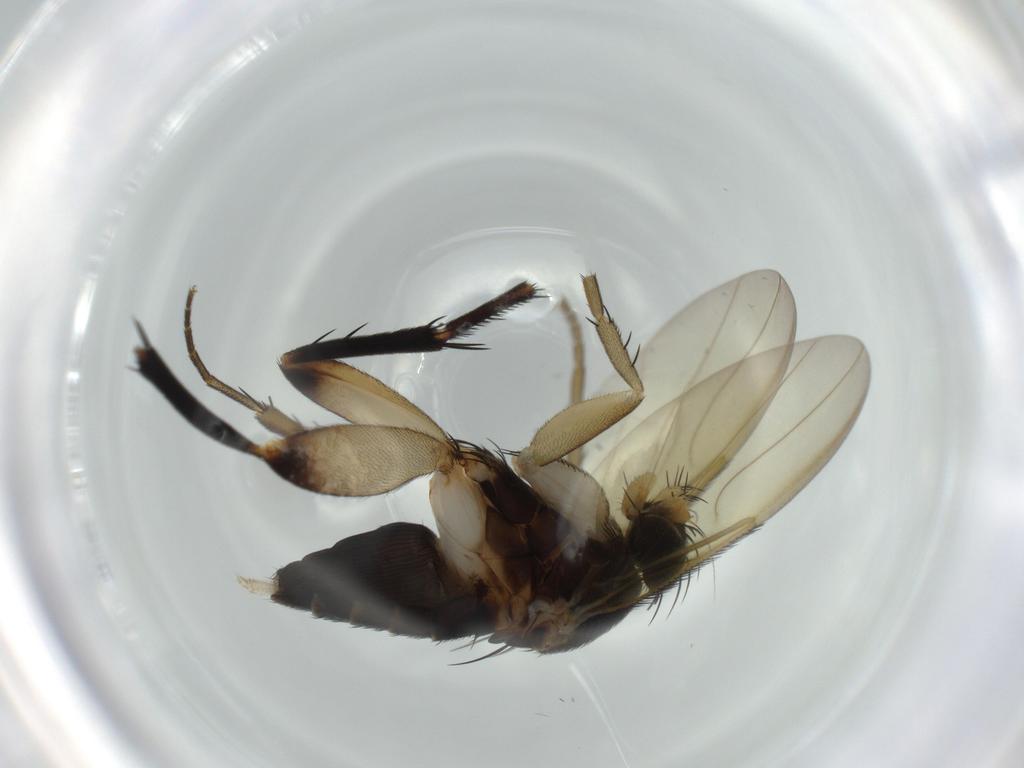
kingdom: Animalia
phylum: Arthropoda
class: Insecta
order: Diptera
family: Phoridae
